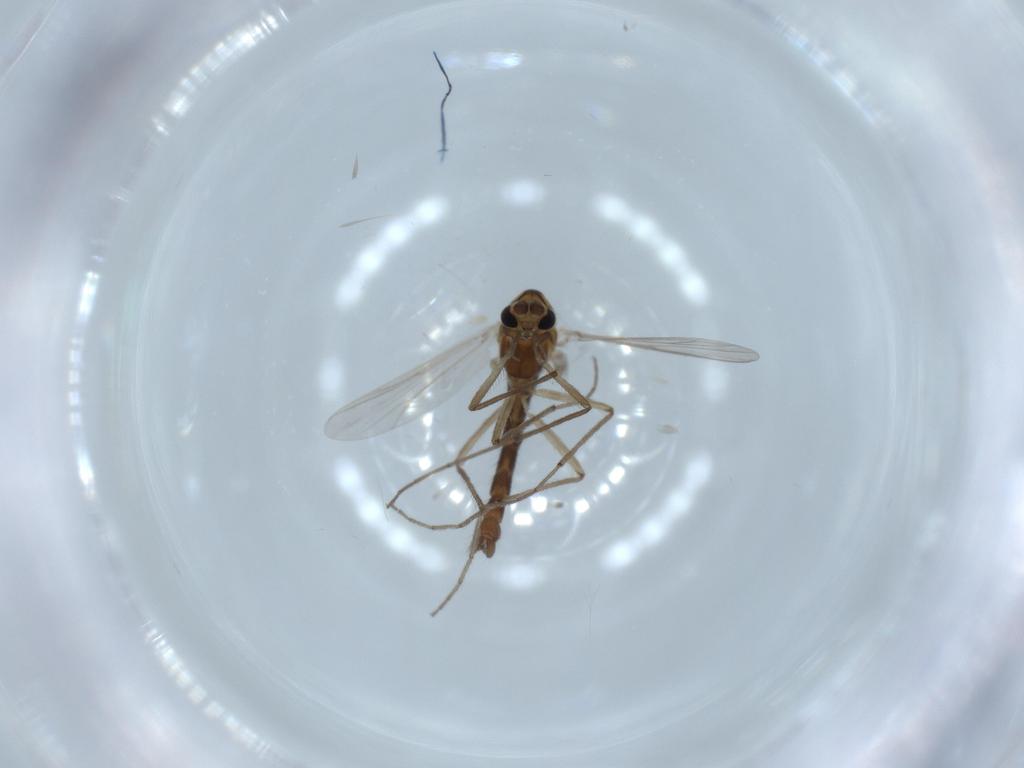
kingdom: Animalia
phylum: Arthropoda
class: Insecta
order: Diptera
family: Chironomidae
